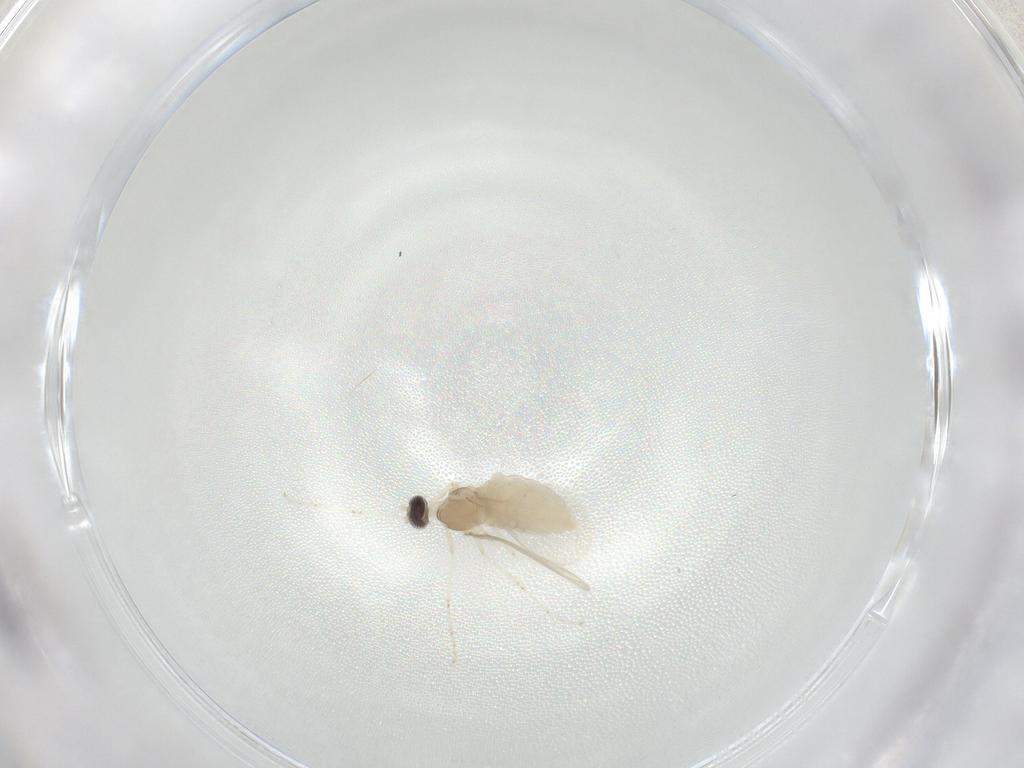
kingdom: Animalia
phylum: Arthropoda
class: Insecta
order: Diptera
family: Cecidomyiidae
